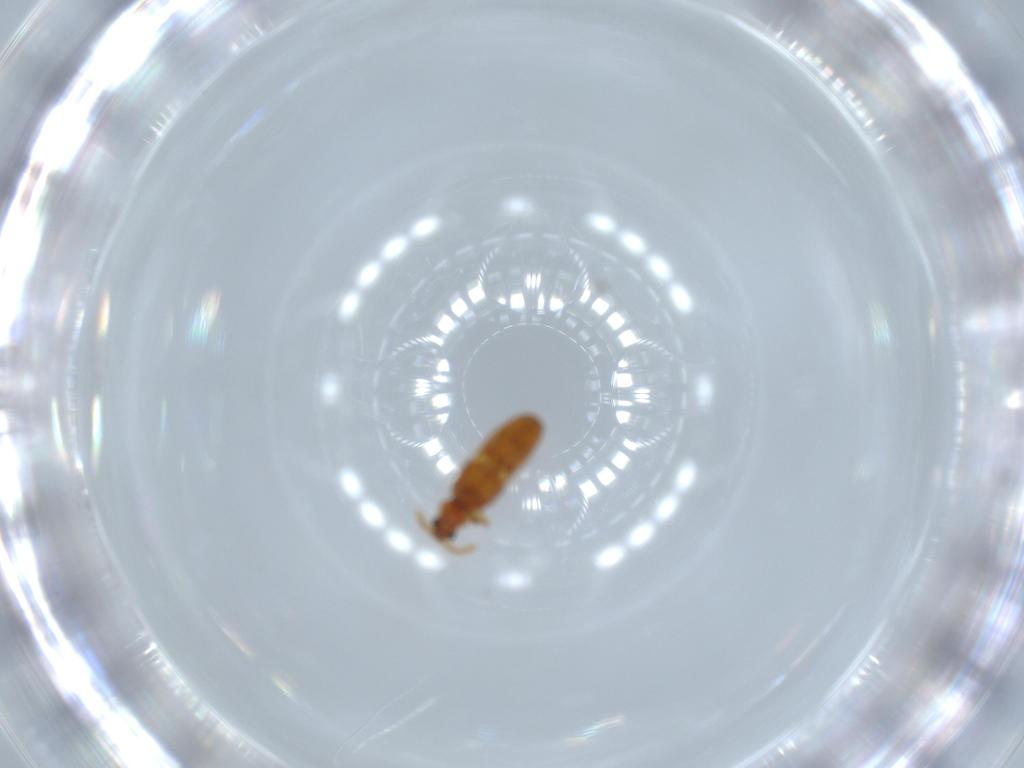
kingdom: Animalia
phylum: Arthropoda
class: Insecta
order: Coleoptera
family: Staphylinidae
